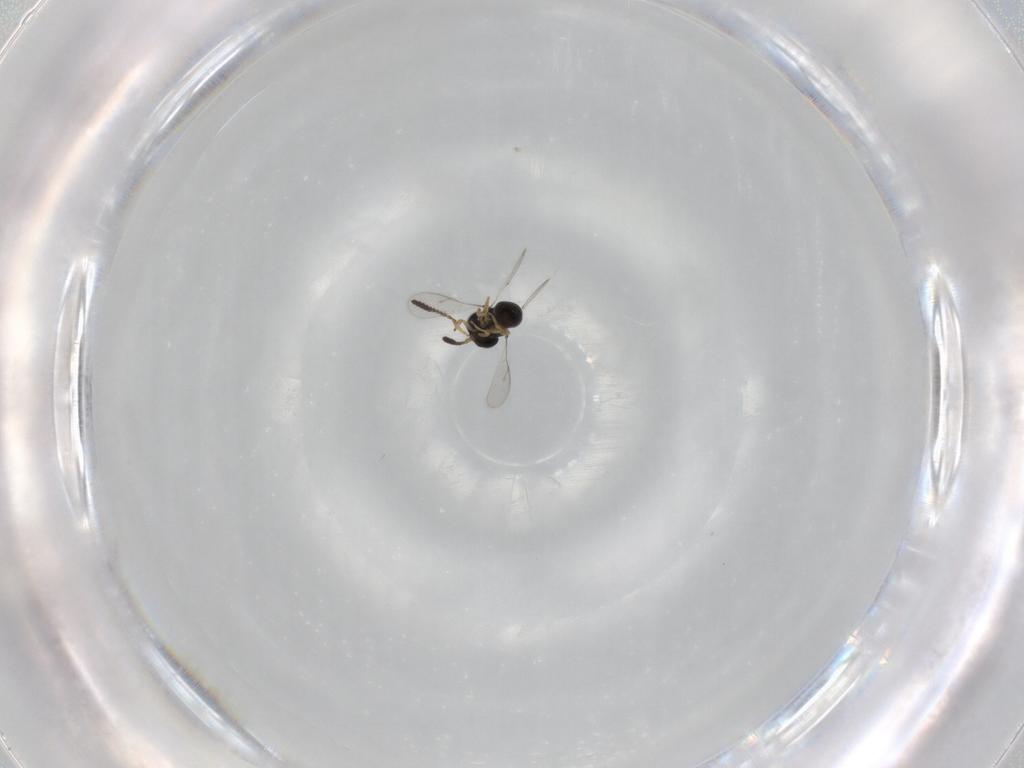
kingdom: Animalia
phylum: Arthropoda
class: Insecta
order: Hymenoptera
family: Scelionidae
